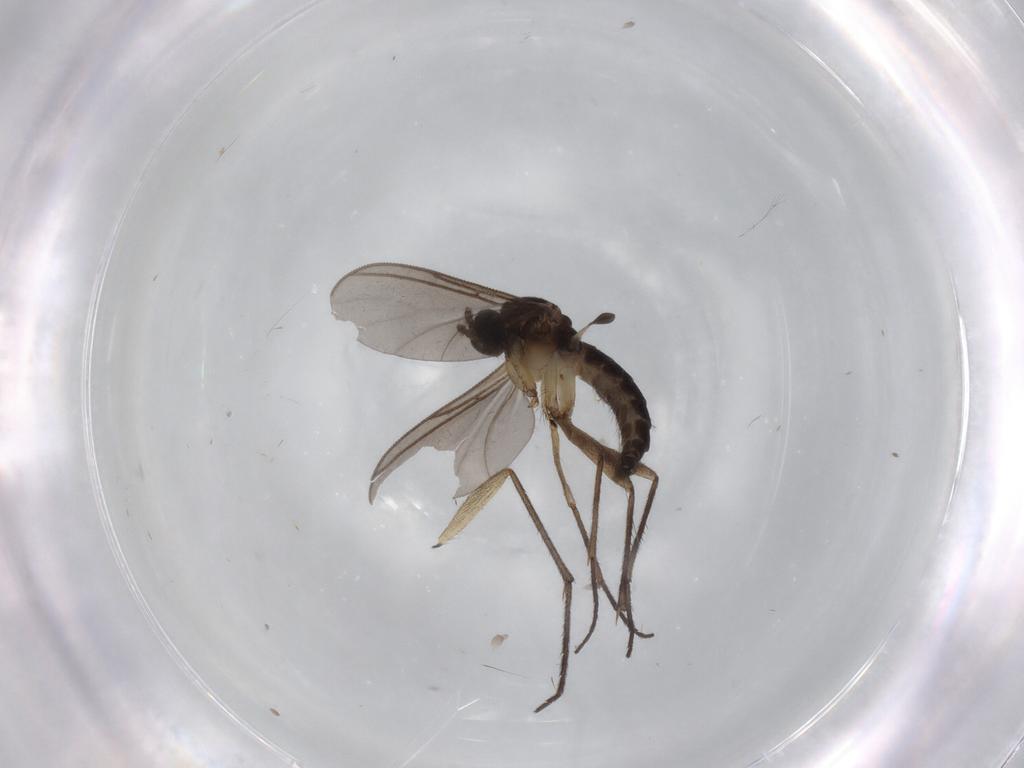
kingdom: Animalia
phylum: Arthropoda
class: Insecta
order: Diptera
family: Sciaridae
